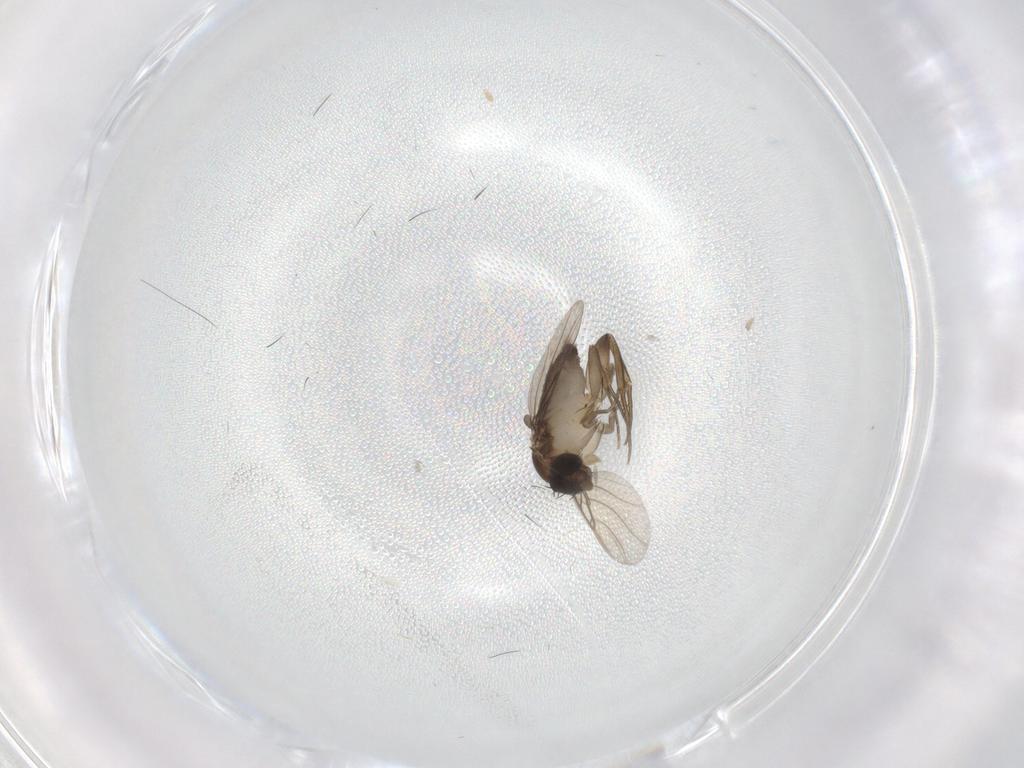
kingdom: Animalia
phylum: Arthropoda
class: Insecta
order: Diptera
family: Phoridae
